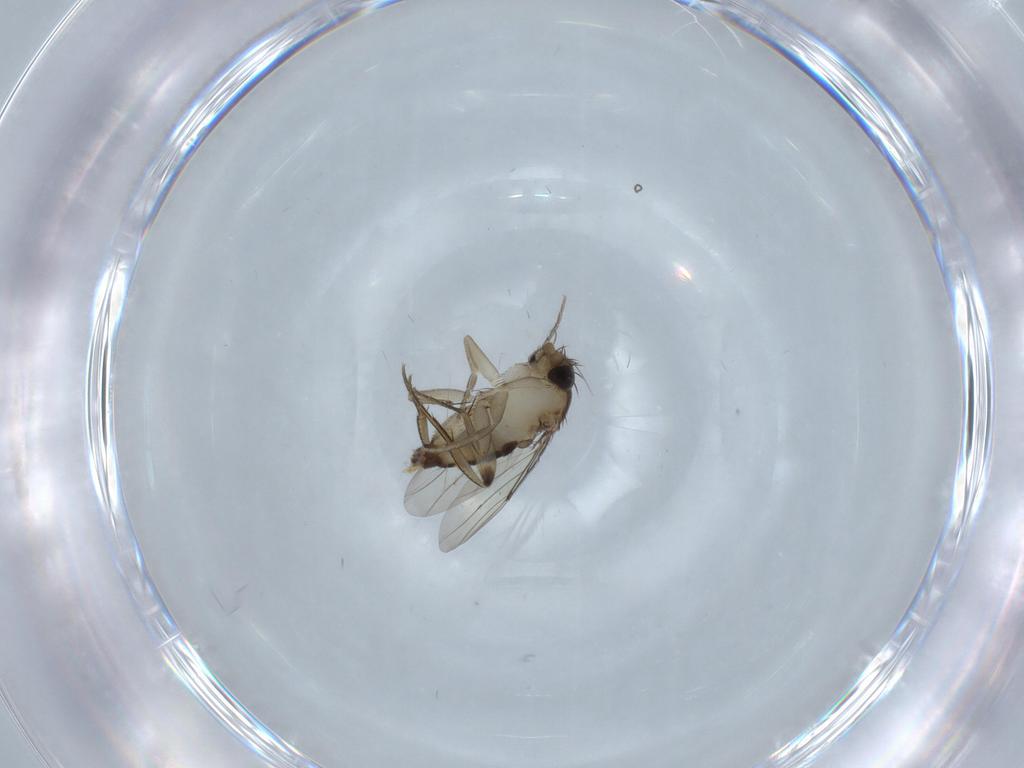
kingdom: Animalia
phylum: Arthropoda
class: Insecta
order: Diptera
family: Phoridae
